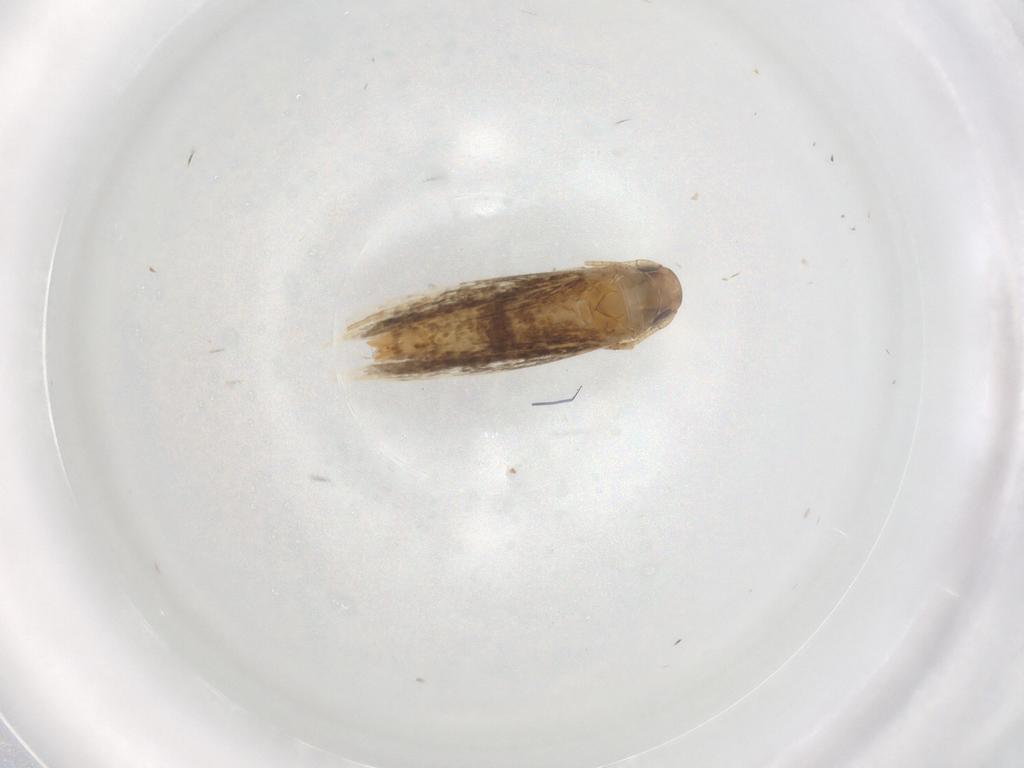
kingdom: Animalia
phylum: Arthropoda
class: Insecta
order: Lepidoptera
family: Crambidae
